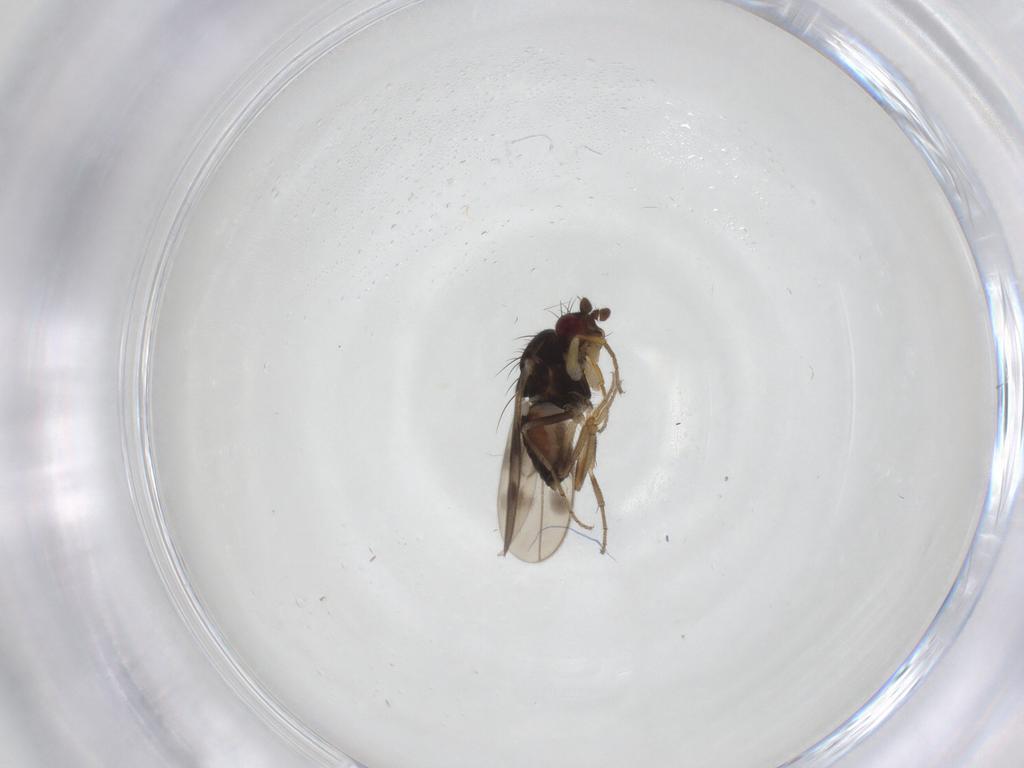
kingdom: Animalia
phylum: Arthropoda
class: Insecta
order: Diptera
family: Sphaeroceridae
